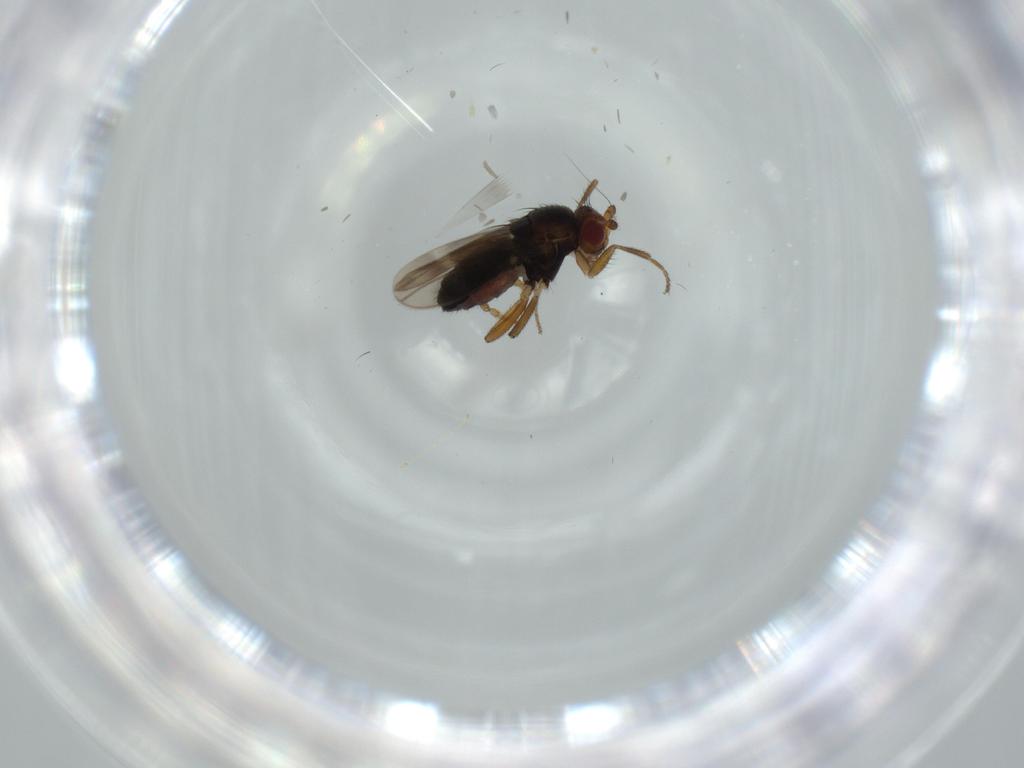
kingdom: Animalia
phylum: Arthropoda
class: Insecta
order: Diptera
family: Sphaeroceridae
